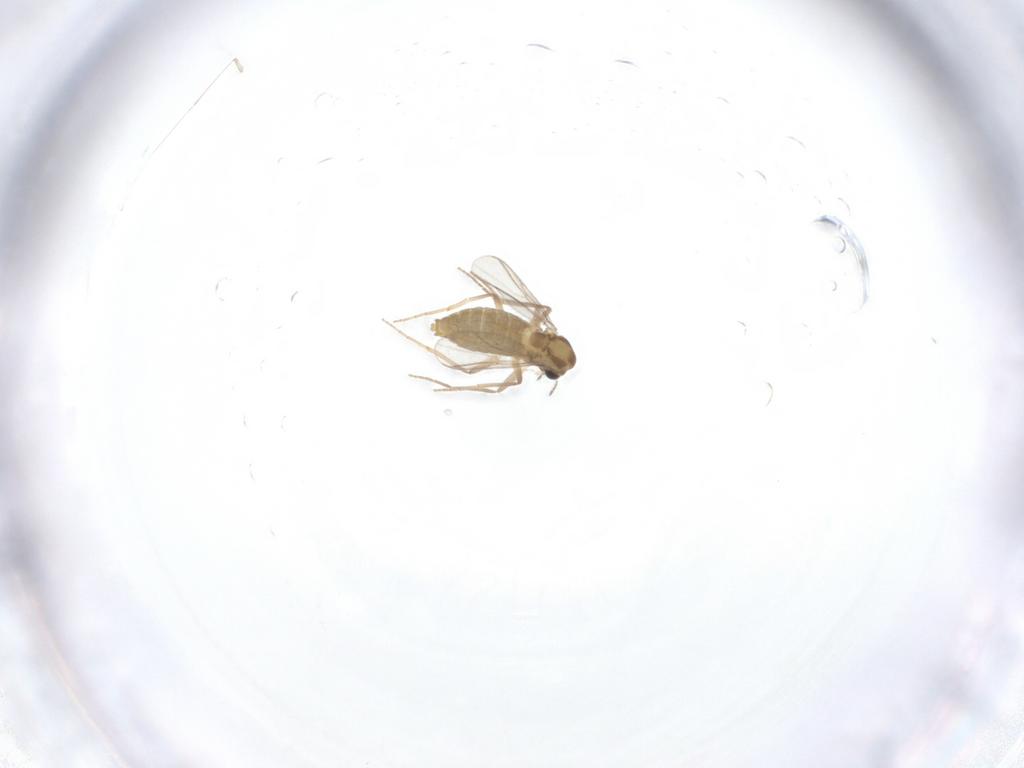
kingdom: Animalia
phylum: Arthropoda
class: Insecta
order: Diptera
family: Chironomidae
